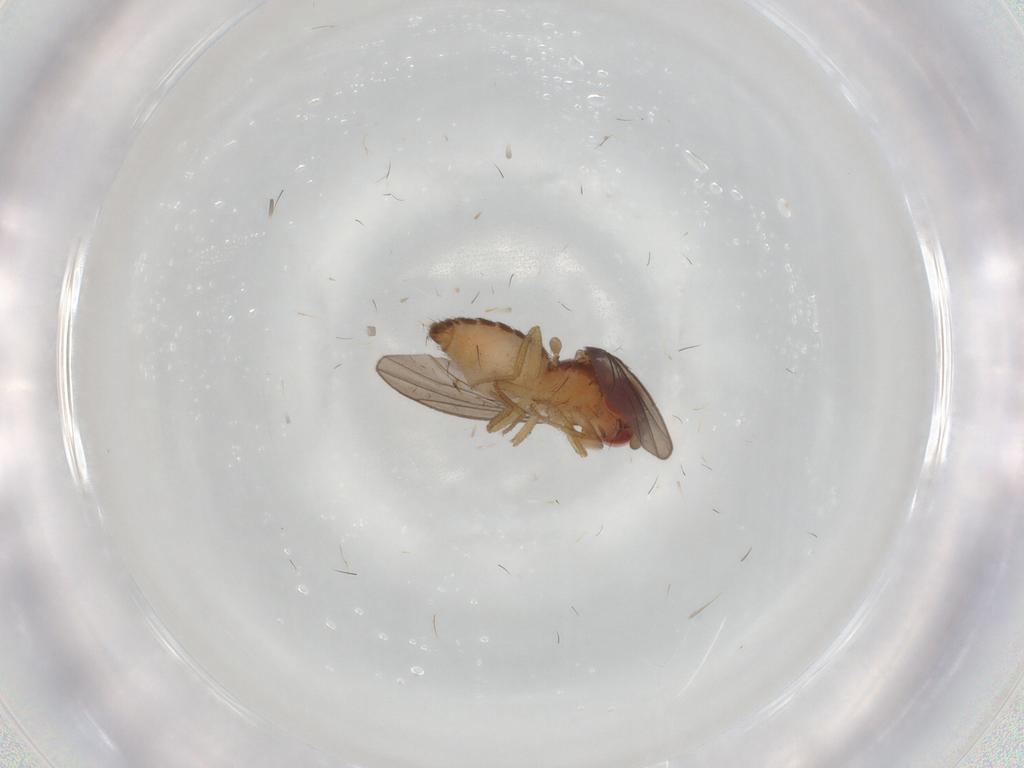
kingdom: Animalia
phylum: Arthropoda
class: Insecta
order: Diptera
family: Drosophilidae
